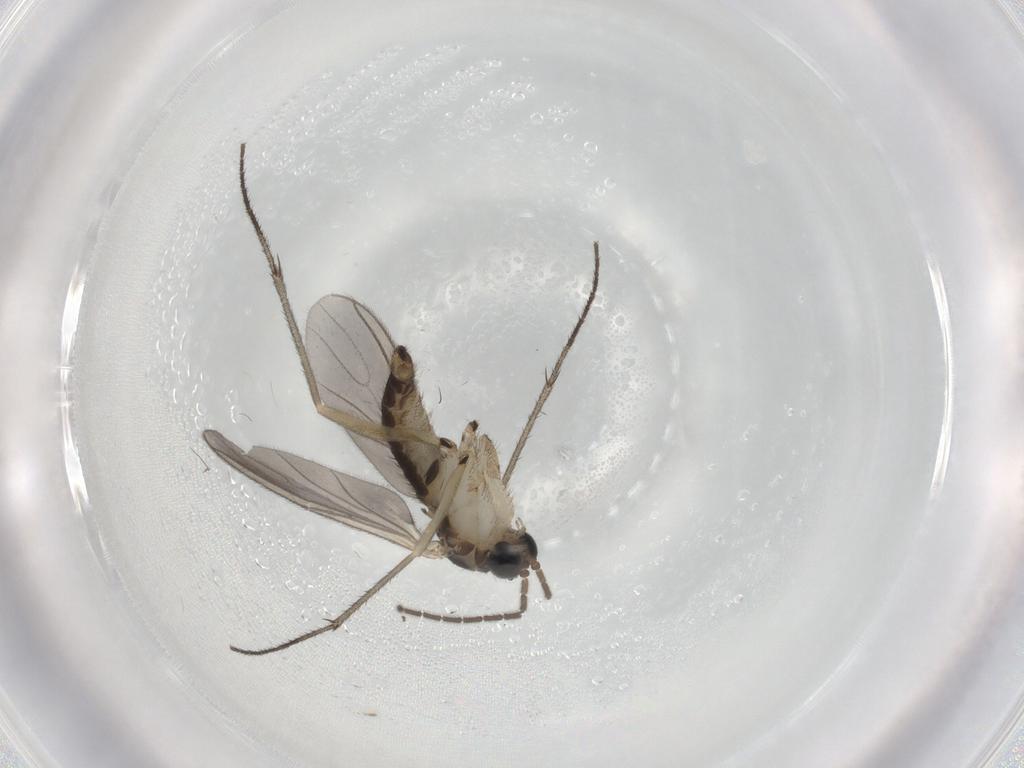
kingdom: Animalia
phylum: Arthropoda
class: Insecta
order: Diptera
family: Sciaridae
